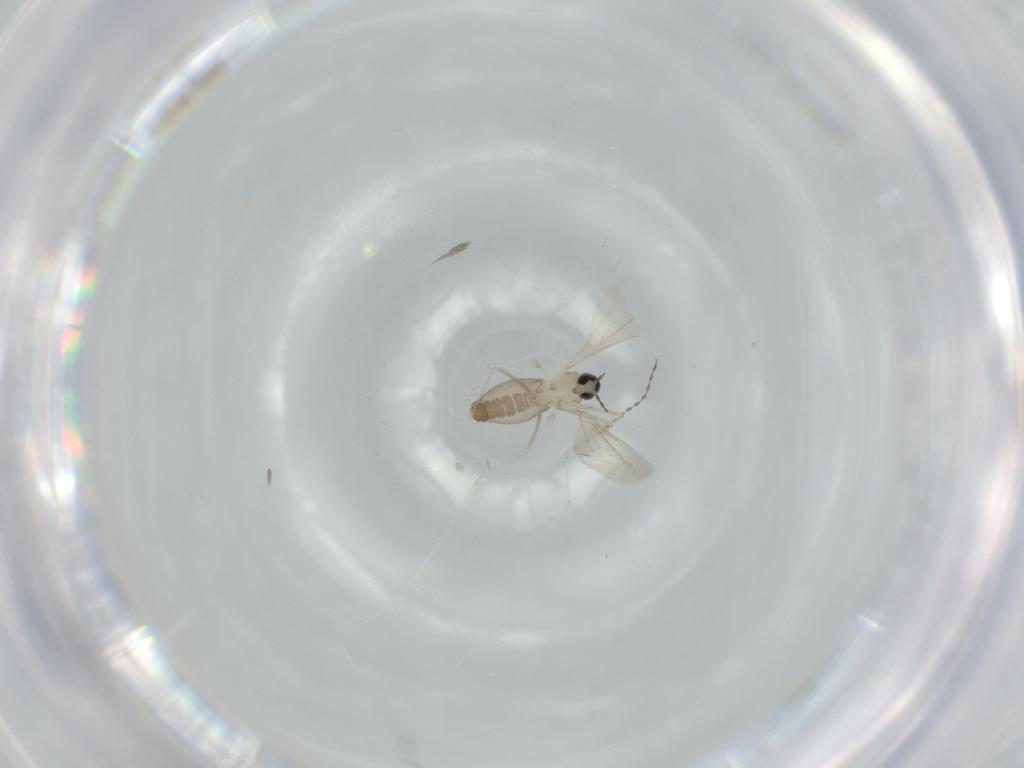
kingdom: Animalia
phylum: Arthropoda
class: Insecta
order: Diptera
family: Cecidomyiidae
